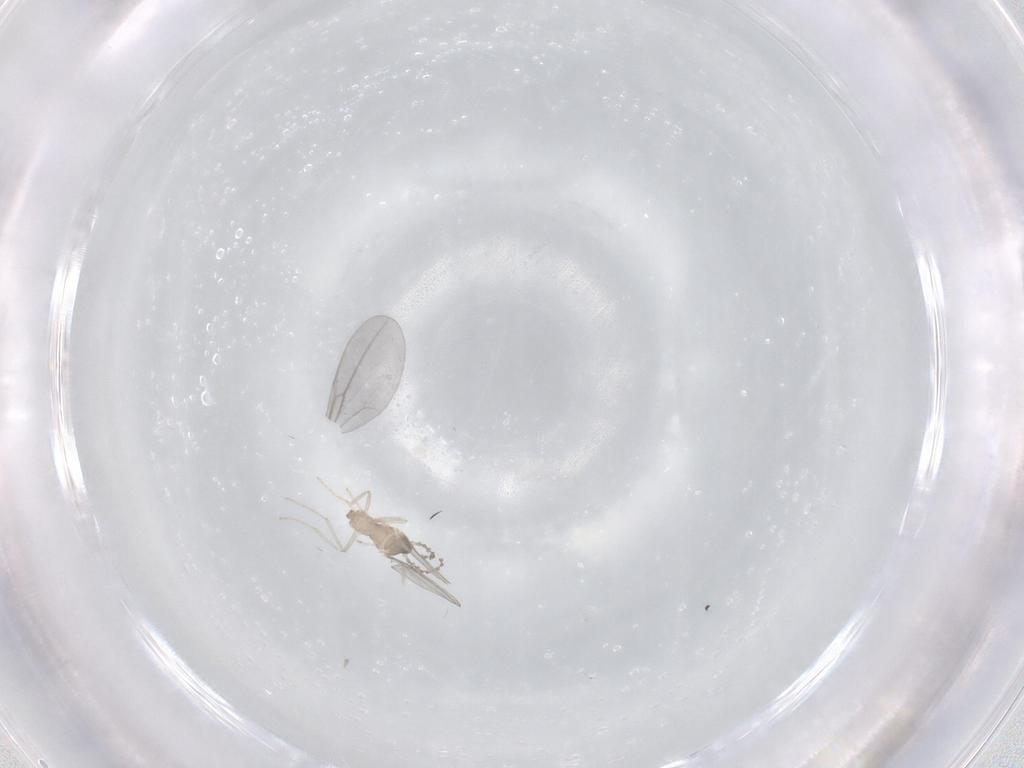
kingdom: Animalia
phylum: Arthropoda
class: Insecta
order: Diptera
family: Cecidomyiidae
